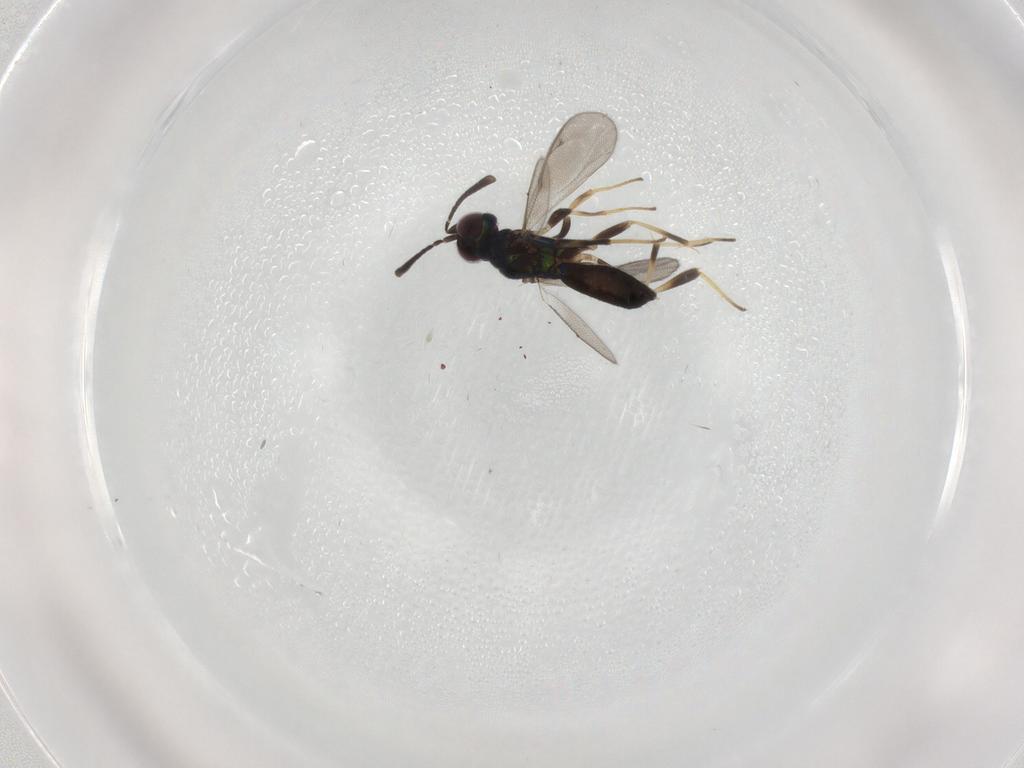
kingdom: Animalia
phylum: Arthropoda
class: Insecta
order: Hymenoptera
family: Eupelmidae
